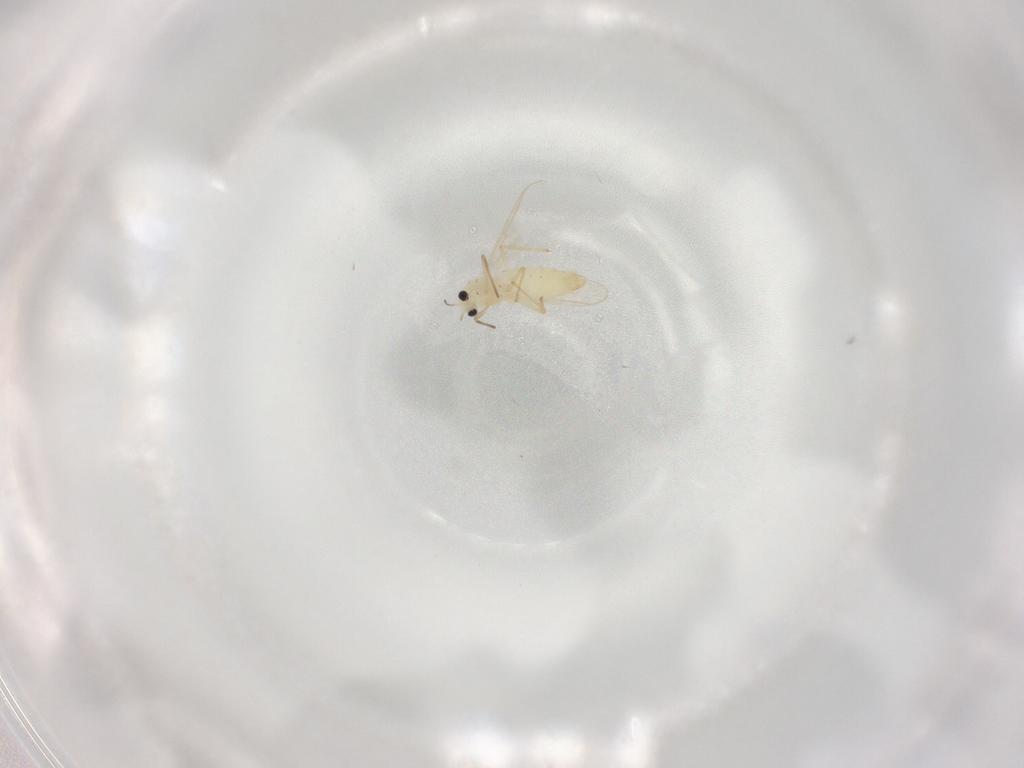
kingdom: Animalia
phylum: Arthropoda
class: Insecta
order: Diptera
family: Chironomidae
